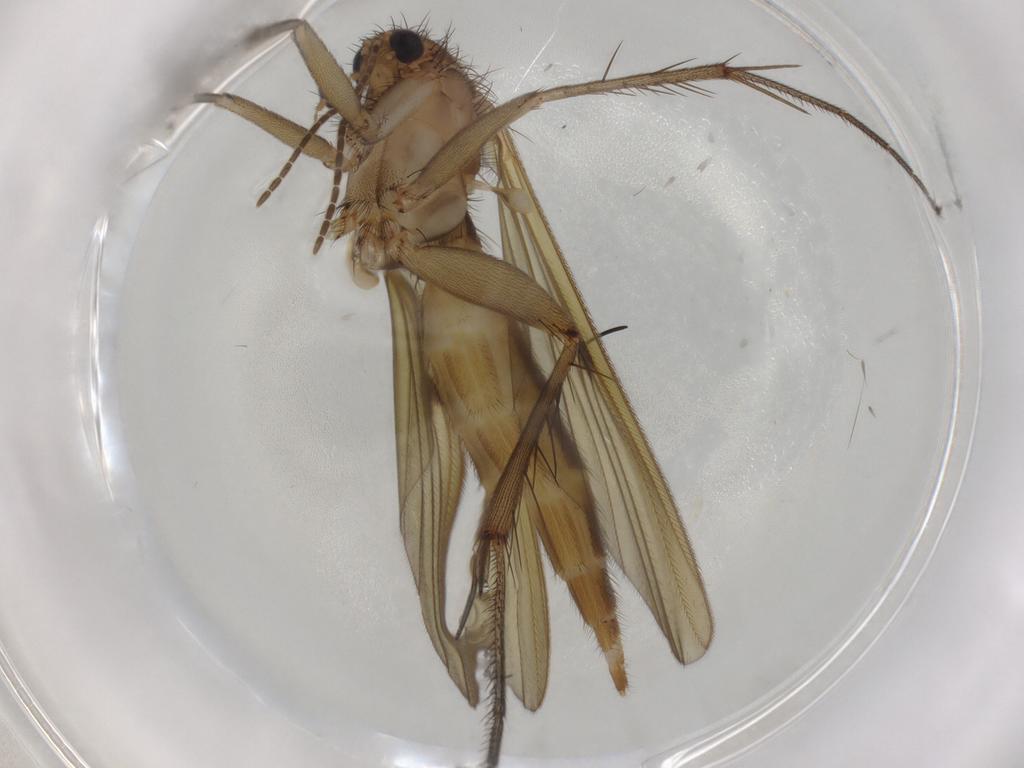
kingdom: Animalia
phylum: Arthropoda
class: Insecta
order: Diptera
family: Mycetophilidae
